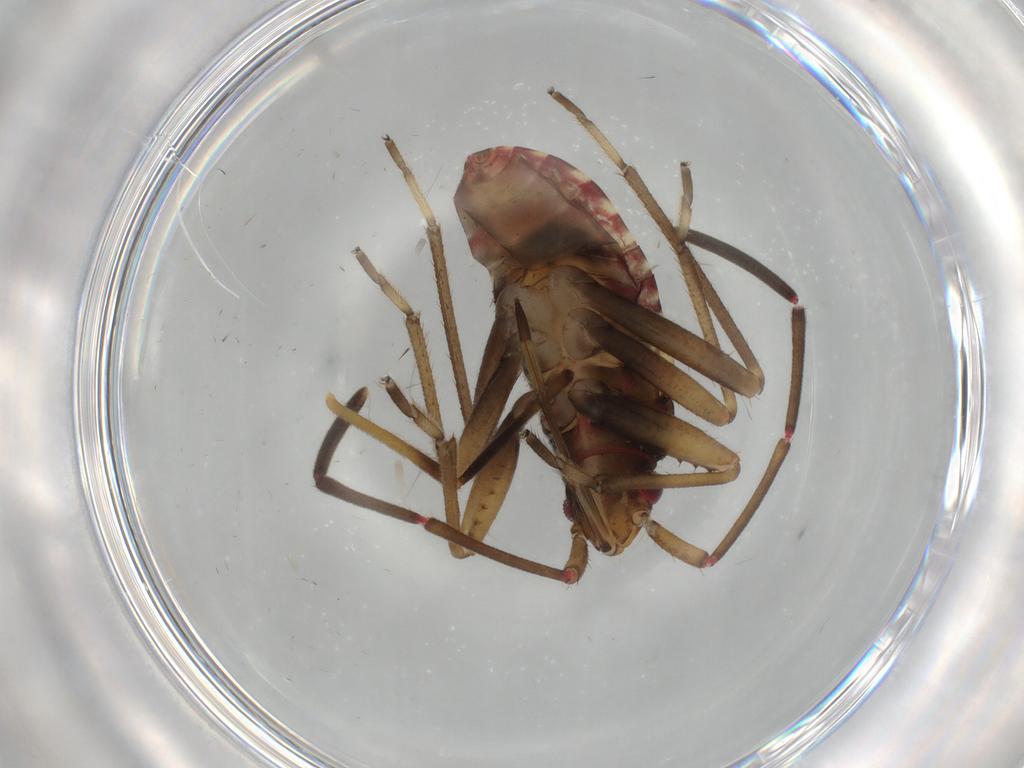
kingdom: Animalia
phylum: Arthropoda
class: Insecta
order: Hemiptera
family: Rhyparochromidae
